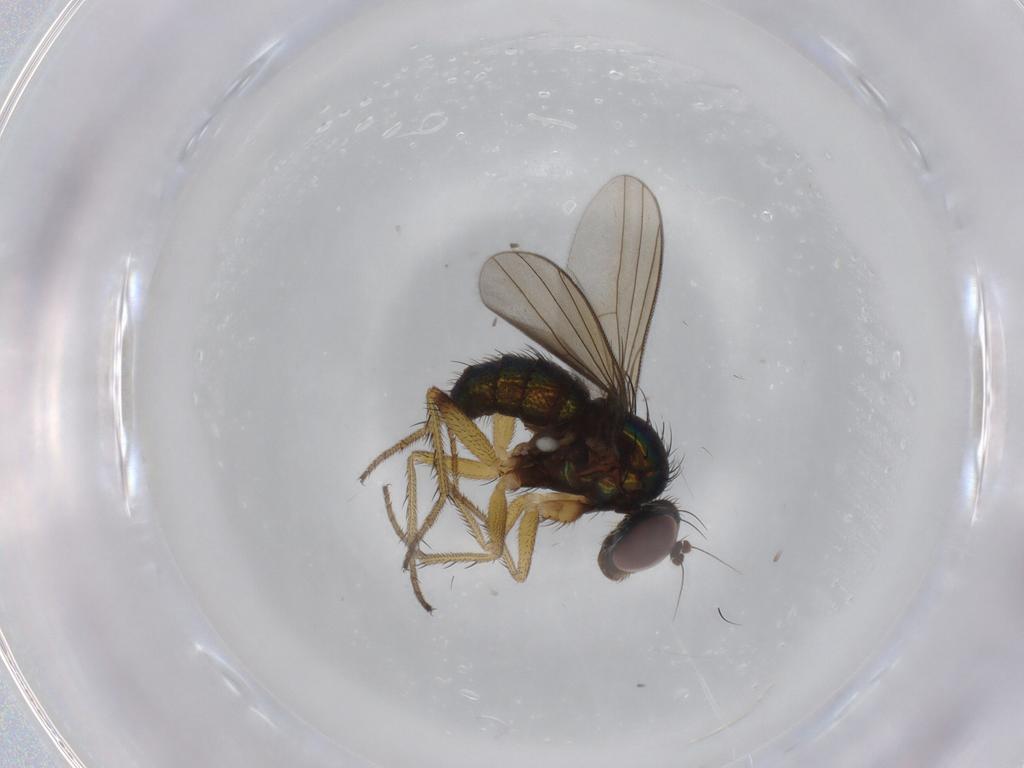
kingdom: Animalia
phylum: Arthropoda
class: Insecta
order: Diptera
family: Dolichopodidae
